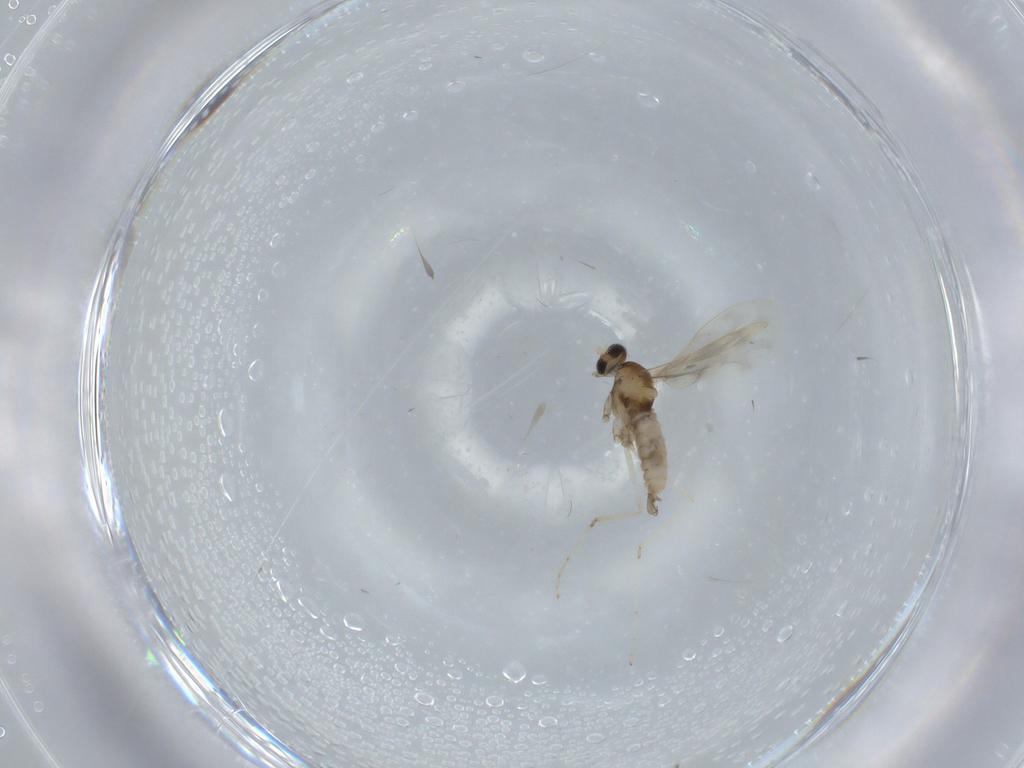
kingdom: Animalia
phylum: Arthropoda
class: Insecta
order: Diptera
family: Cecidomyiidae
